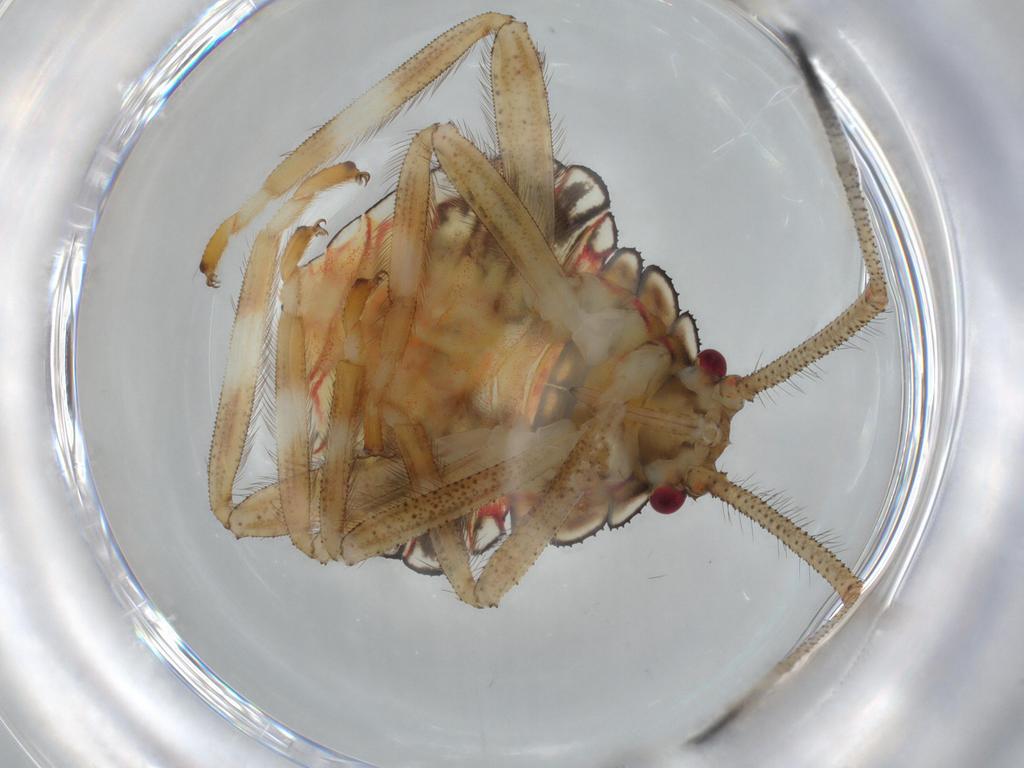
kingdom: Animalia
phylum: Arthropoda
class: Insecta
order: Hemiptera
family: Coreidae
